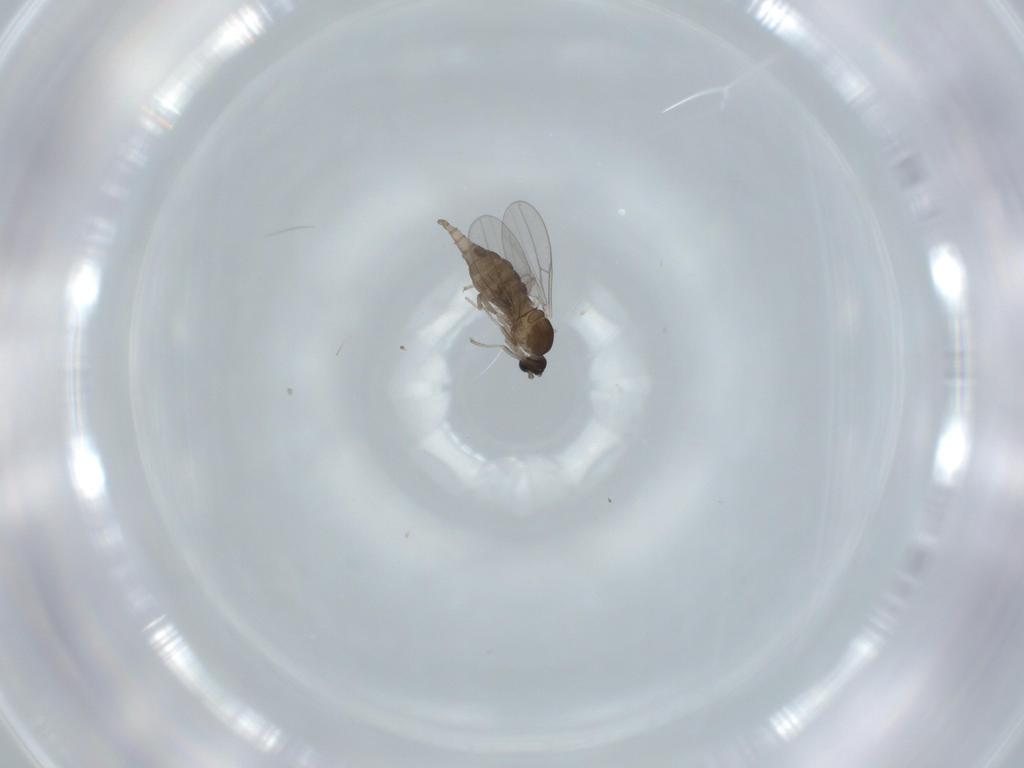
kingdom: Animalia
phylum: Arthropoda
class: Insecta
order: Diptera
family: Cecidomyiidae
